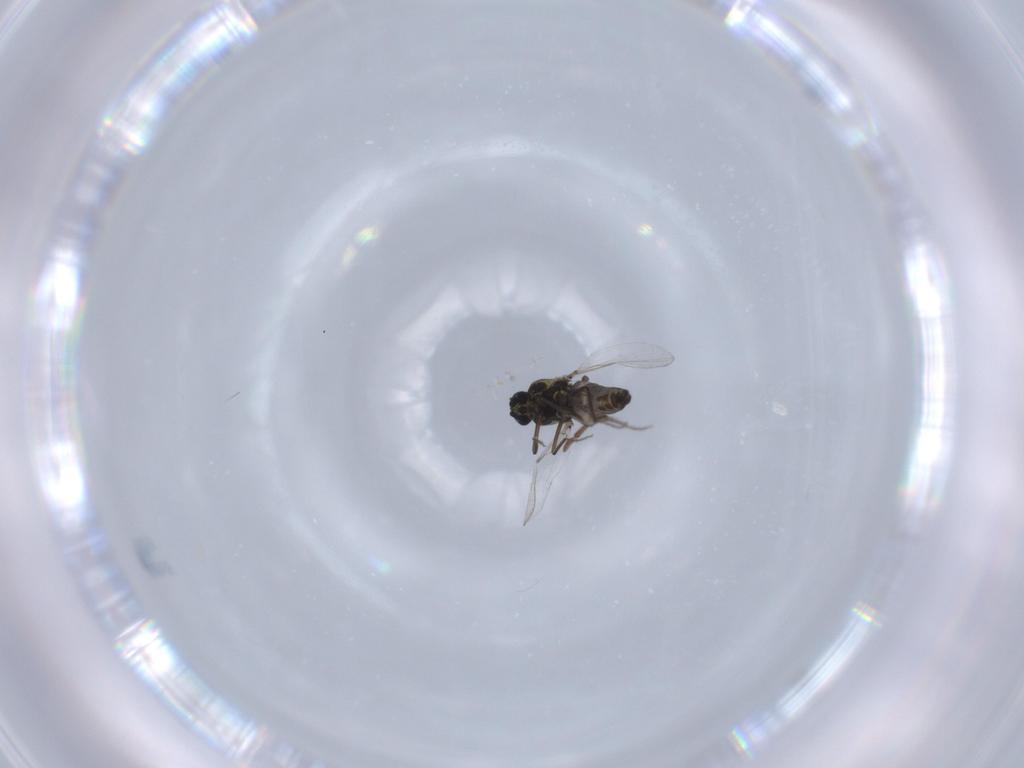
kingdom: Animalia
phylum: Arthropoda
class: Insecta
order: Diptera
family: Ceratopogonidae
